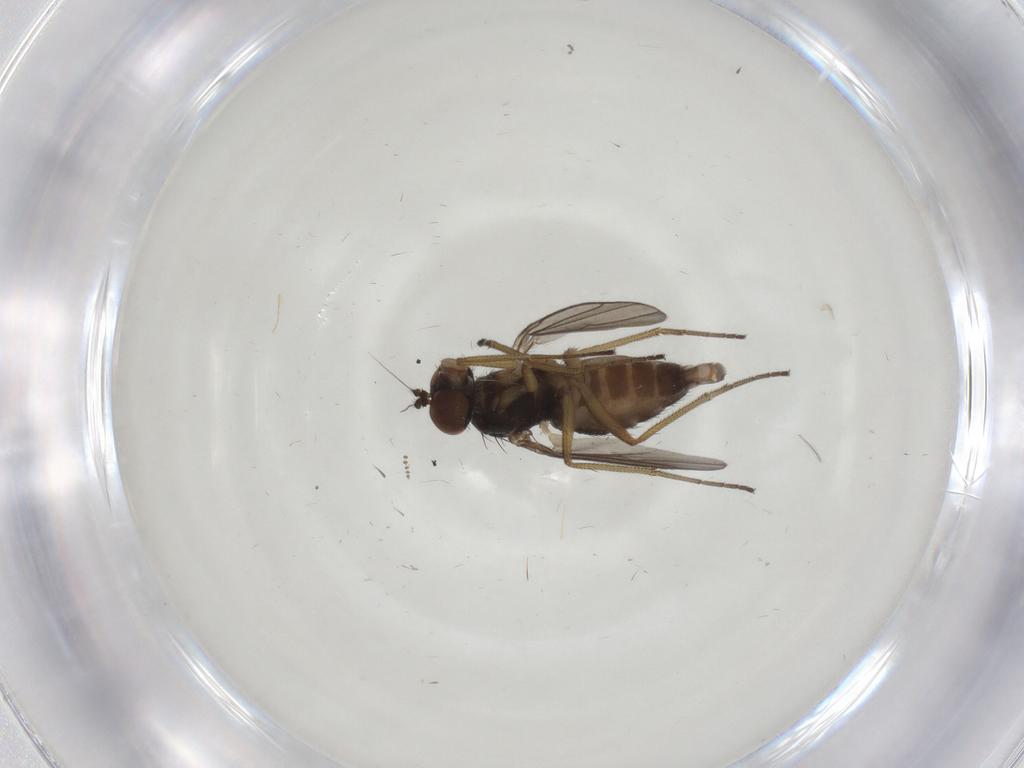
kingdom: Animalia
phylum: Arthropoda
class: Insecta
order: Diptera
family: Dolichopodidae
